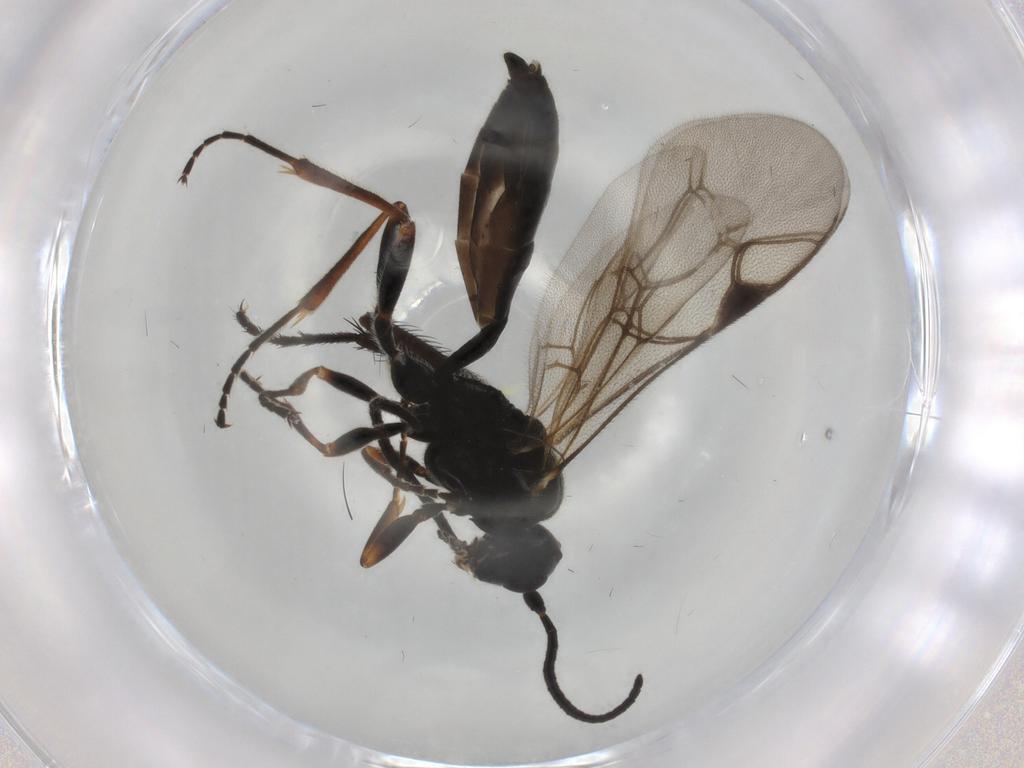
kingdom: Animalia
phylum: Arthropoda
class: Insecta
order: Hymenoptera
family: Ichneumonidae
